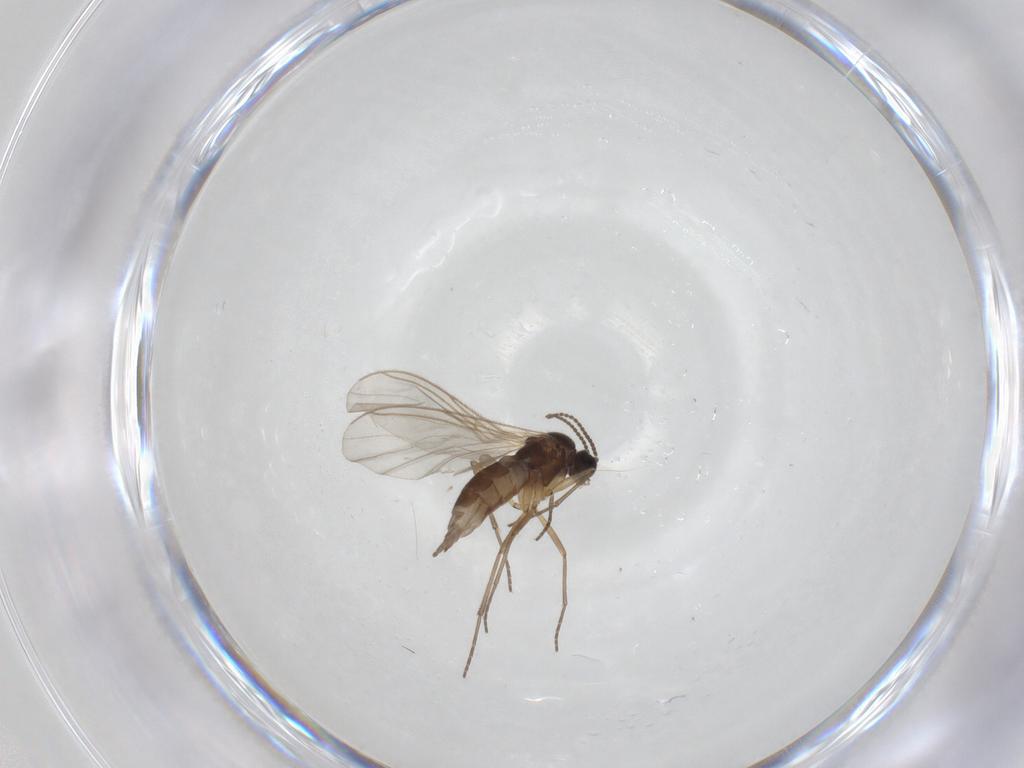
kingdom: Animalia
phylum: Arthropoda
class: Insecta
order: Diptera
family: Sciaridae
